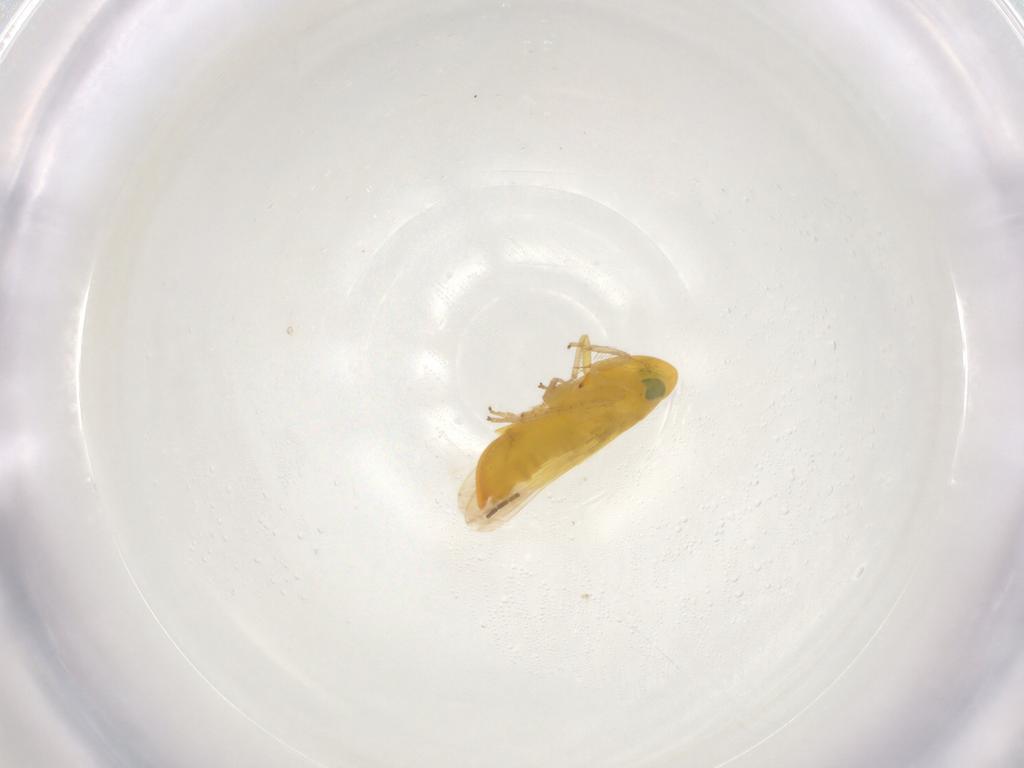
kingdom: Animalia
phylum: Arthropoda
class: Insecta
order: Hemiptera
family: Cicadellidae
